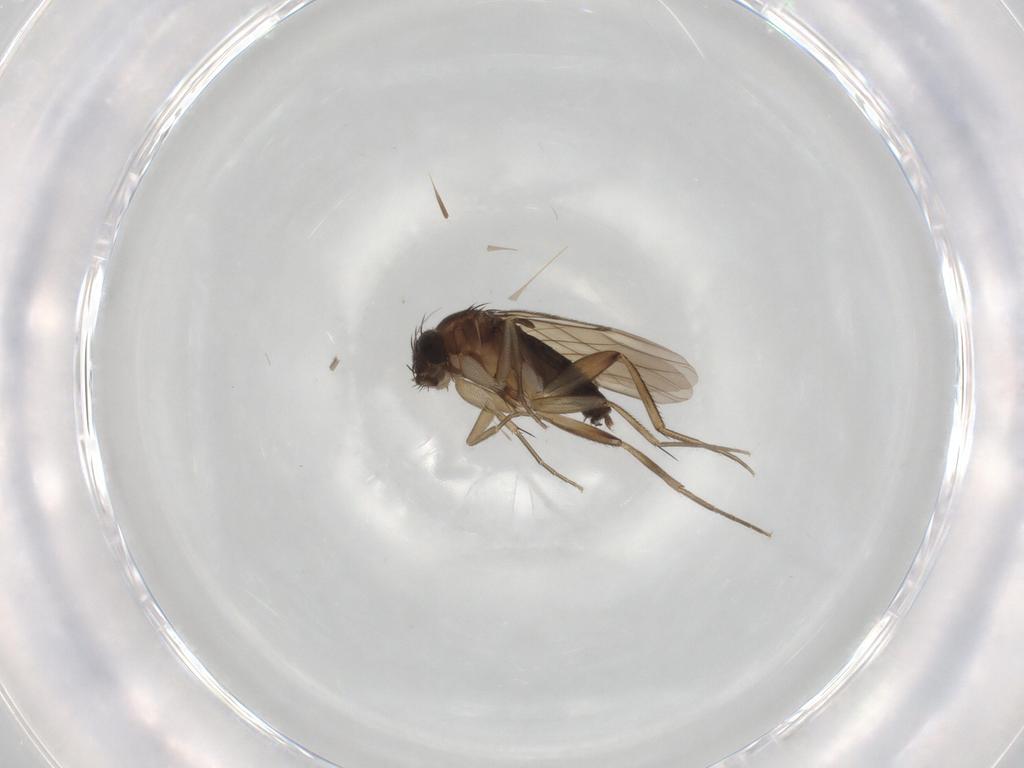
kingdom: Animalia
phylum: Arthropoda
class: Insecta
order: Diptera
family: Phoridae
